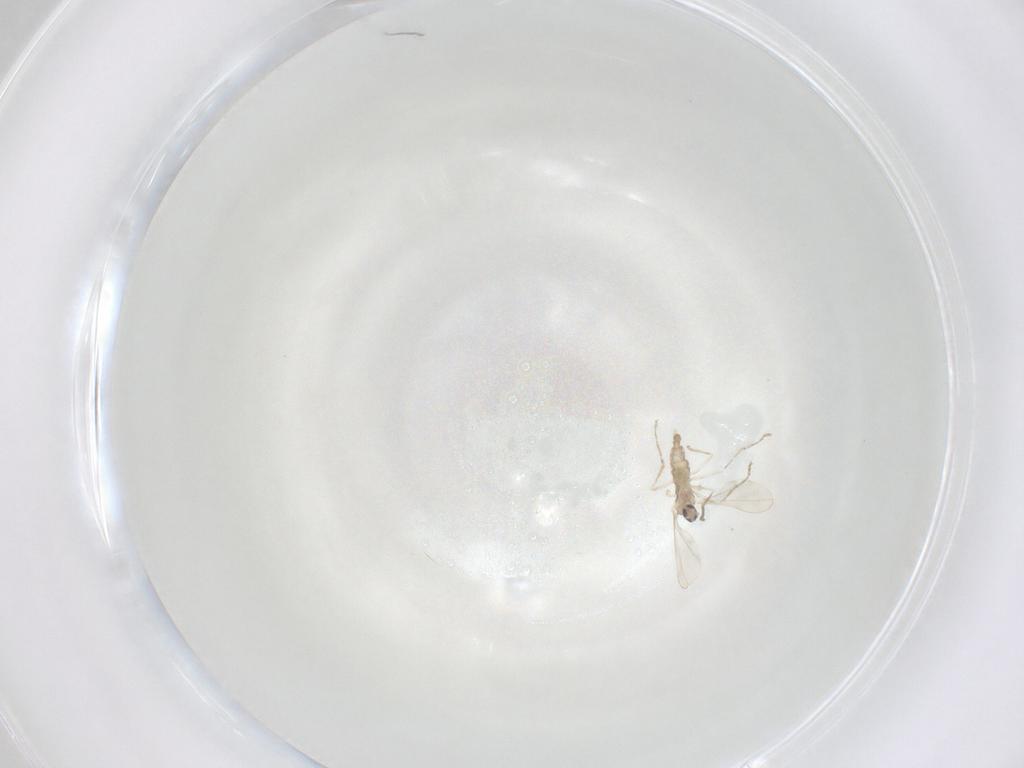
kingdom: Animalia
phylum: Arthropoda
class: Insecta
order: Diptera
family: Cecidomyiidae
